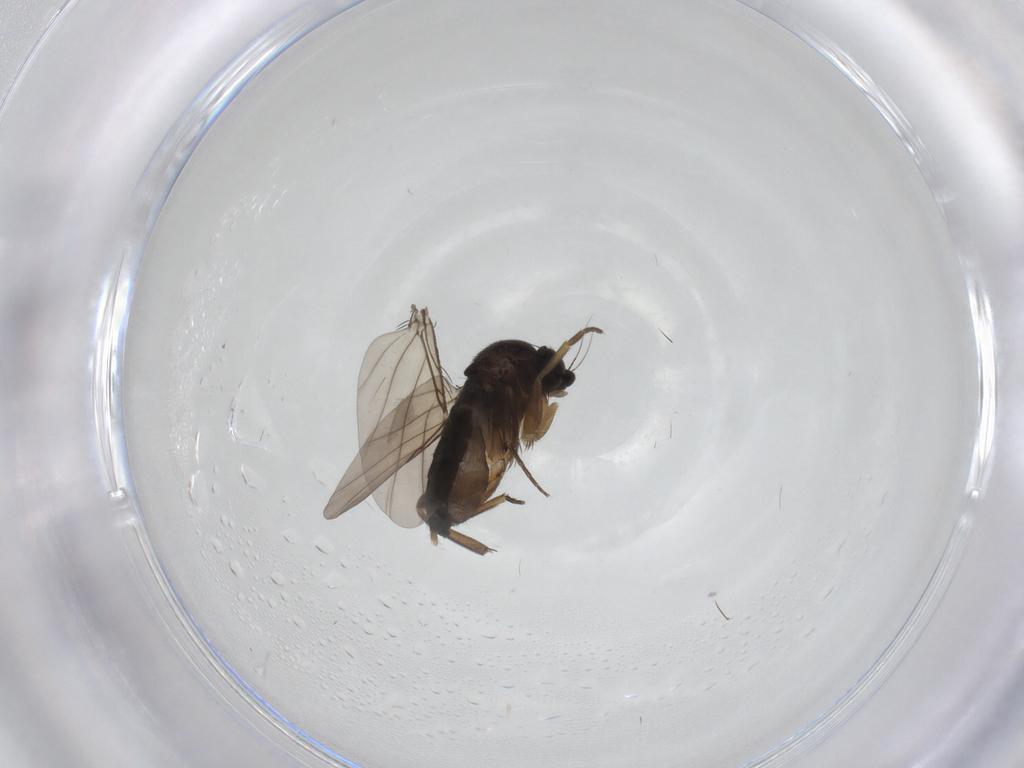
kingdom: Animalia
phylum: Arthropoda
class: Insecta
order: Diptera
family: Phoridae
